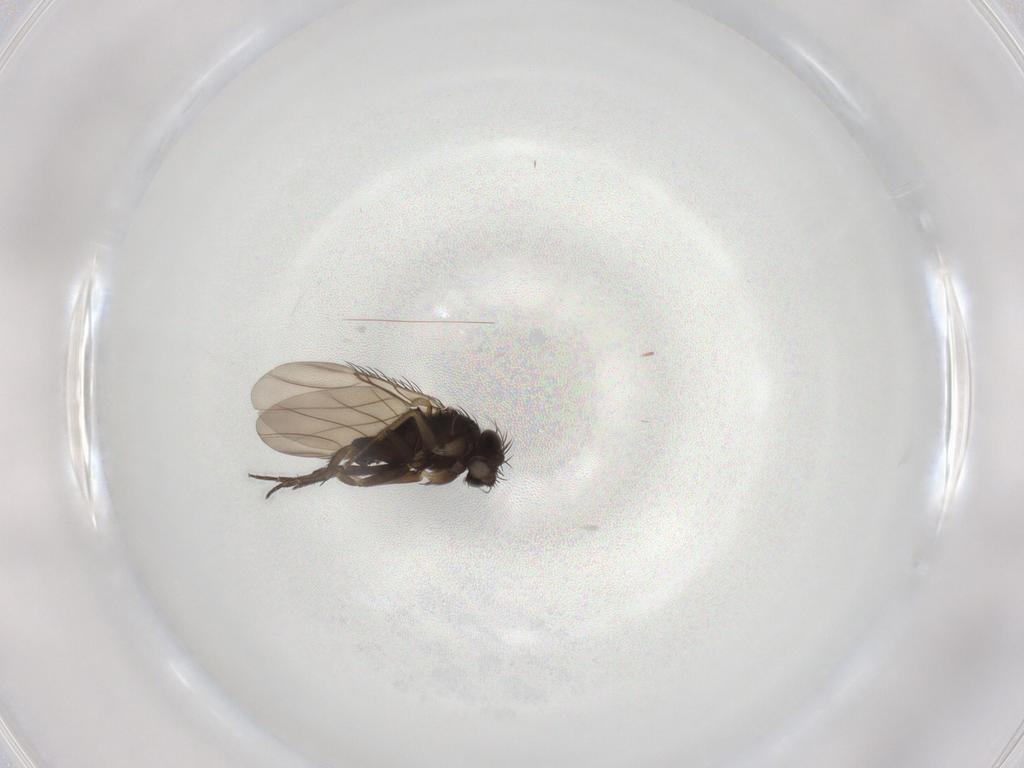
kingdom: Animalia
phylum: Arthropoda
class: Insecta
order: Diptera
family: Phoridae
